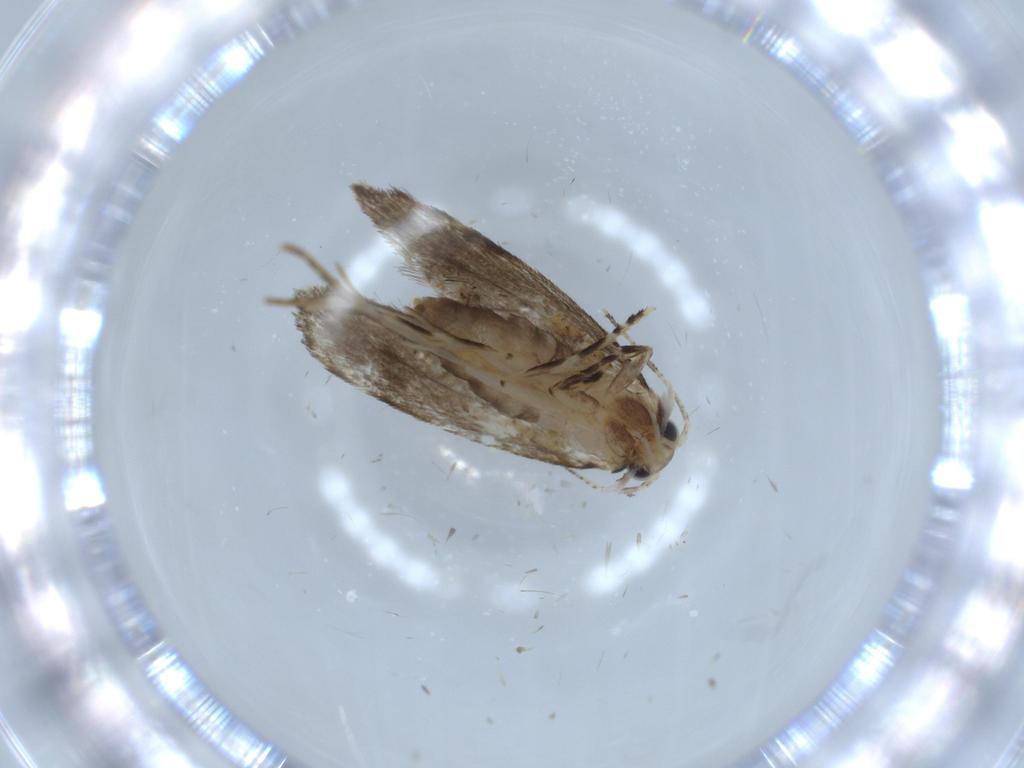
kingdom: Animalia
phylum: Arthropoda
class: Insecta
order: Lepidoptera
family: Tineidae
